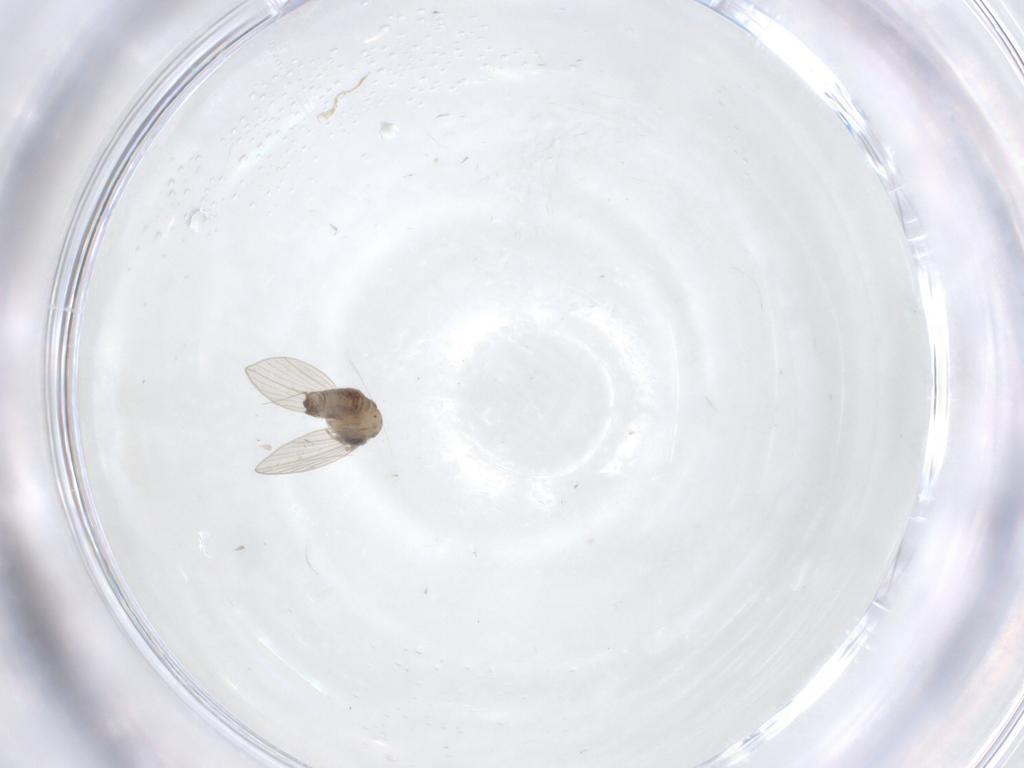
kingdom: Animalia
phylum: Arthropoda
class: Insecta
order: Diptera
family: Psychodidae
